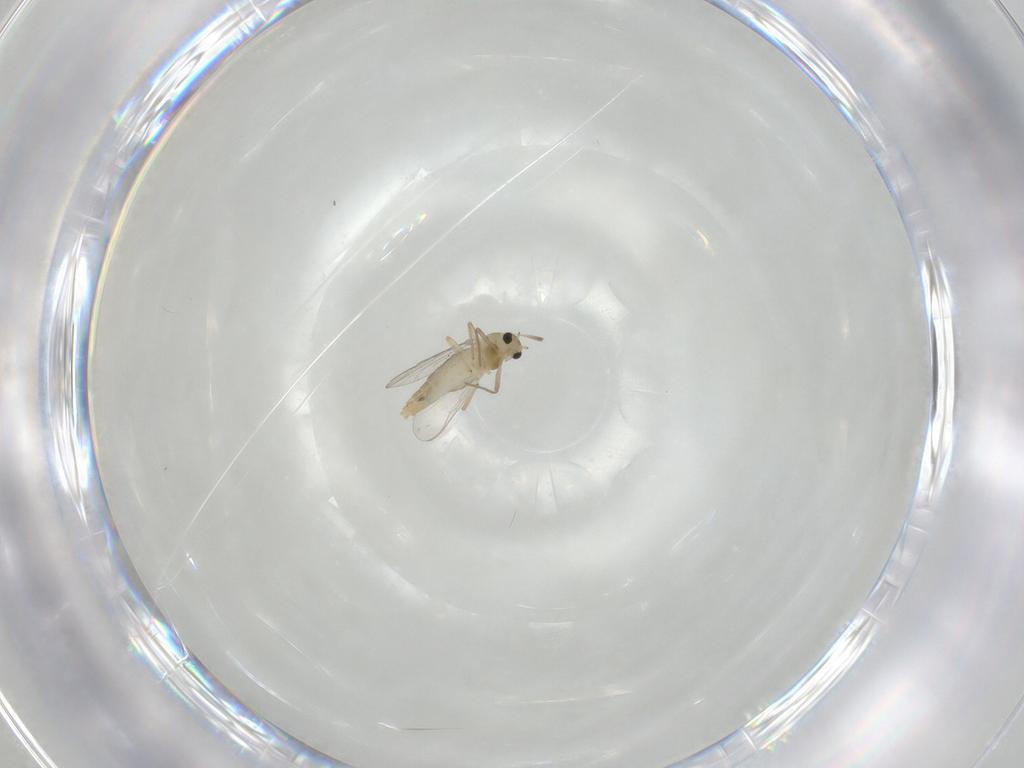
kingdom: Animalia
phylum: Arthropoda
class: Insecta
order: Diptera
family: Chironomidae
